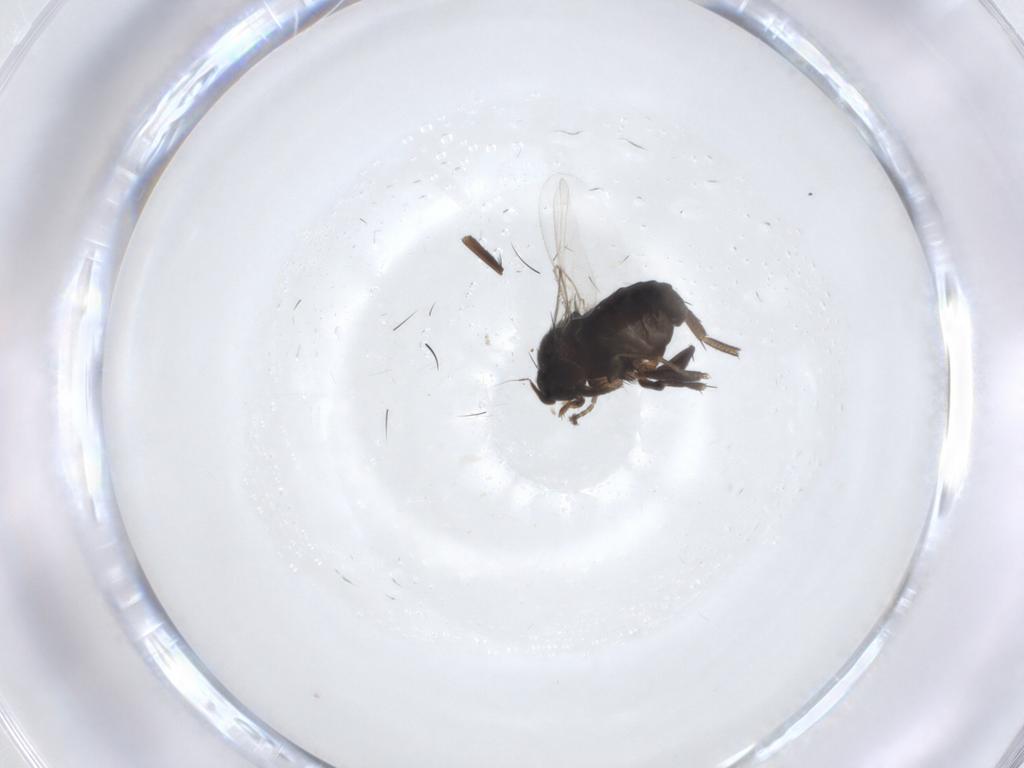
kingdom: Animalia
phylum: Arthropoda
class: Insecta
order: Diptera
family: Phoridae
